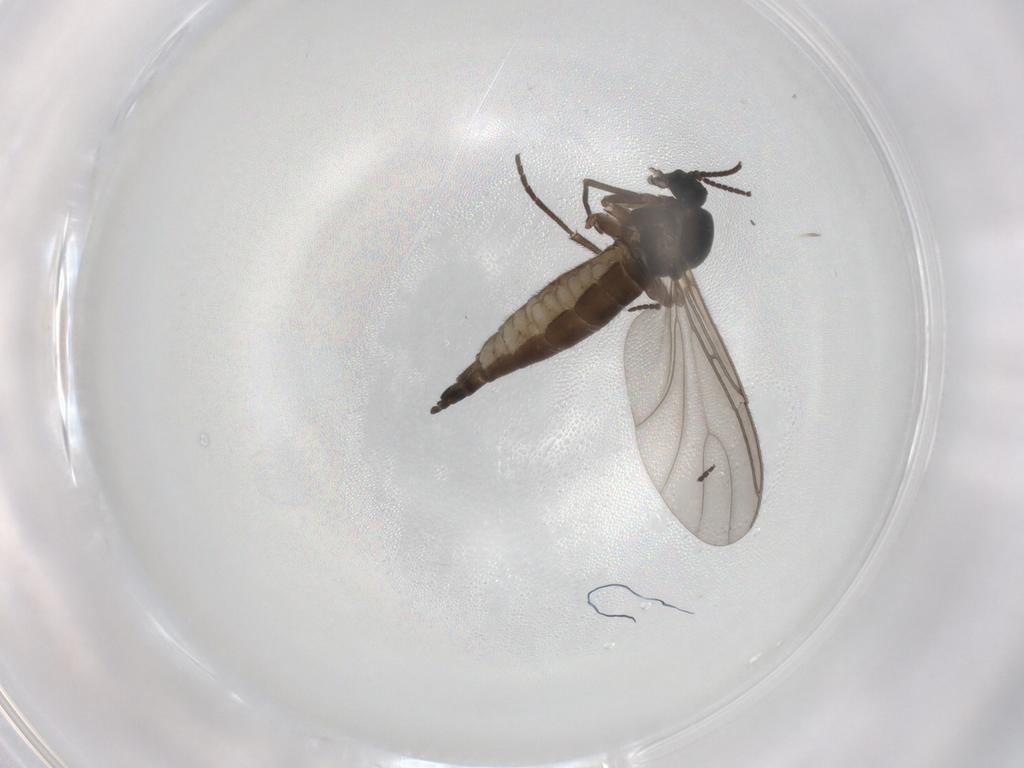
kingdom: Animalia
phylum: Arthropoda
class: Insecta
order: Diptera
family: Sciaridae
